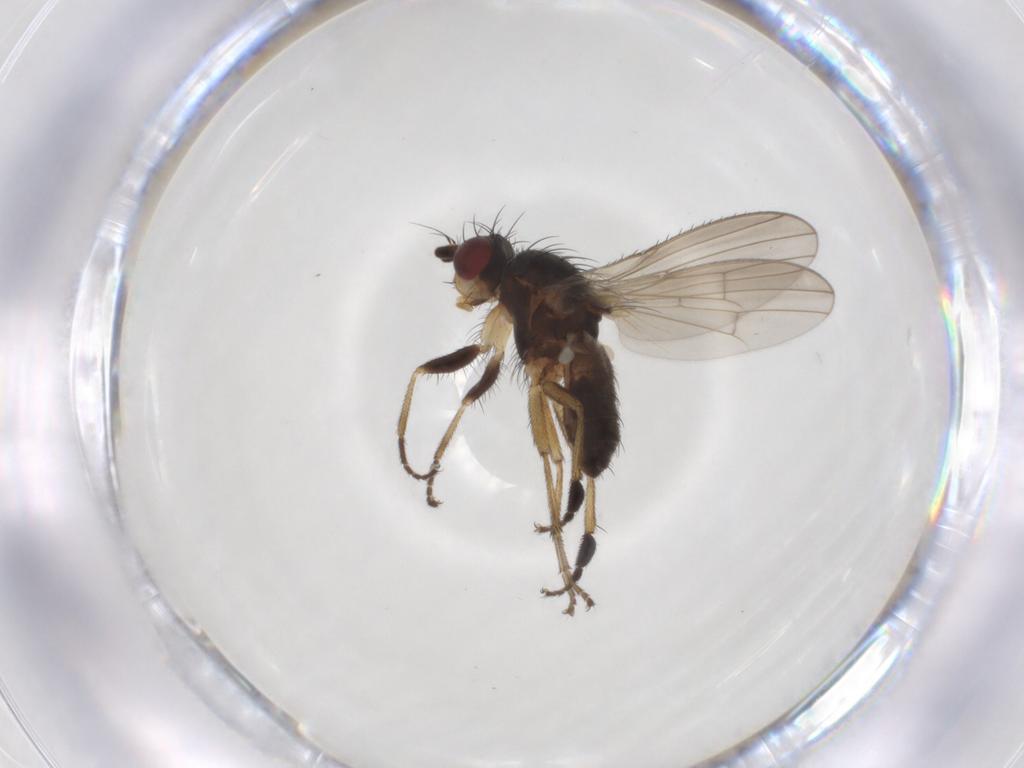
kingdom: Animalia
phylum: Arthropoda
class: Insecta
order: Diptera
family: Heleomyzidae
